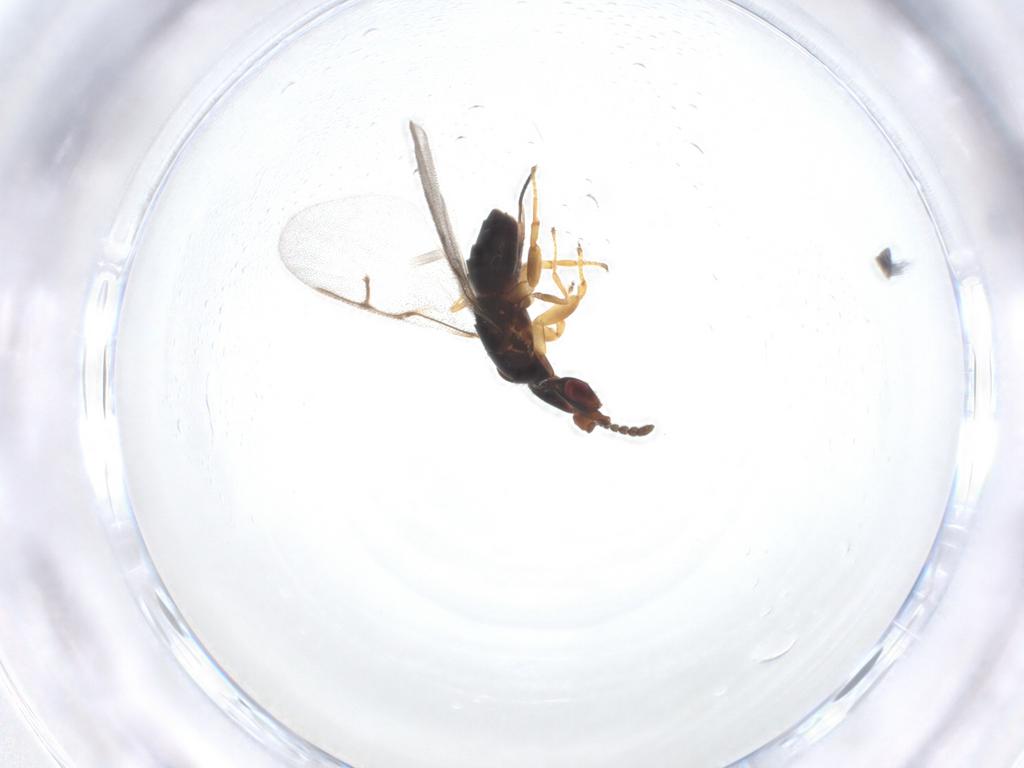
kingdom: Animalia
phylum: Arthropoda
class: Insecta
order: Hymenoptera
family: Agaonidae
